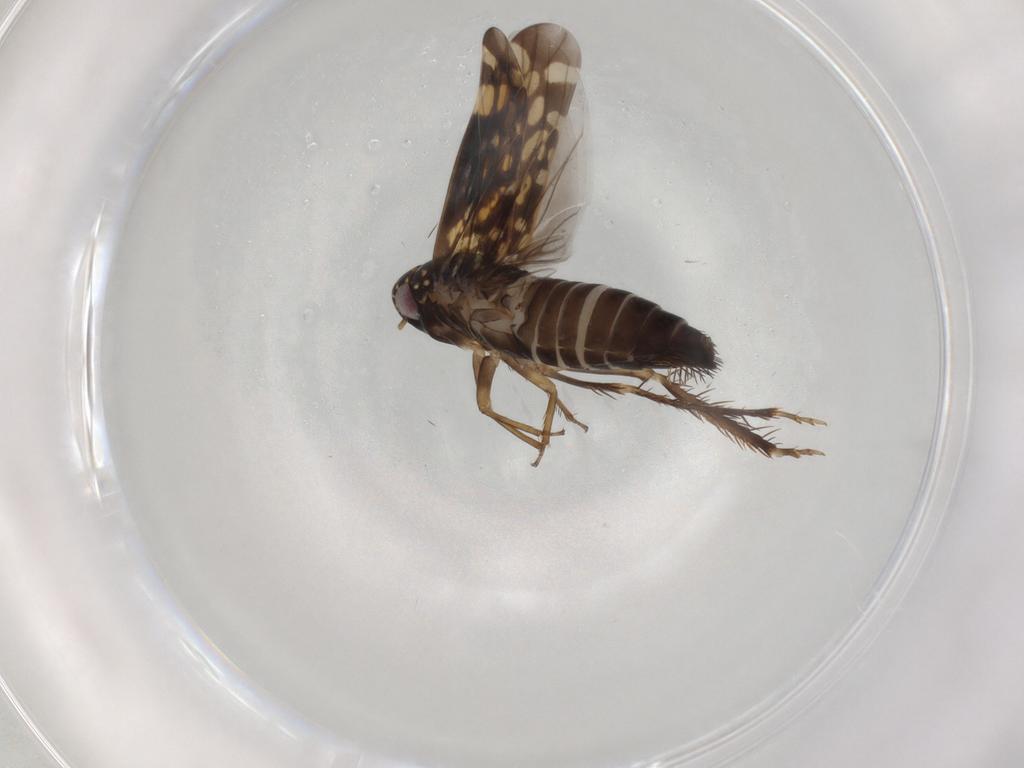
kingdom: Animalia
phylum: Arthropoda
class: Insecta
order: Hemiptera
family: Cicadellidae
